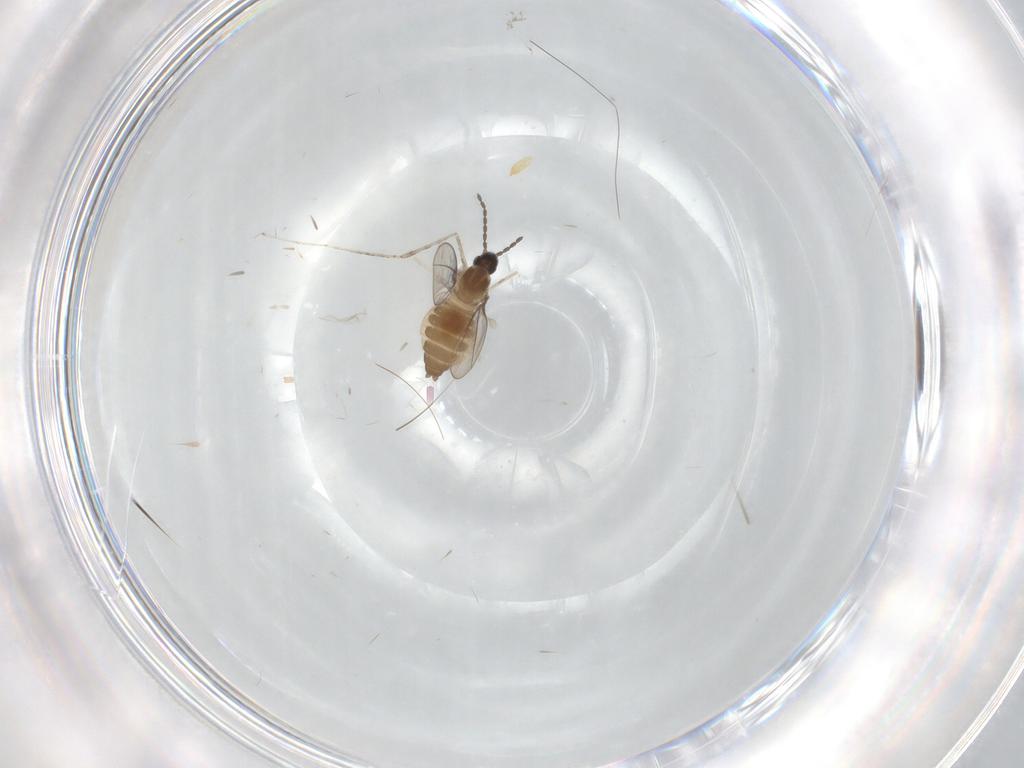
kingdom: Animalia
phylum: Arthropoda
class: Insecta
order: Diptera
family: Cecidomyiidae
